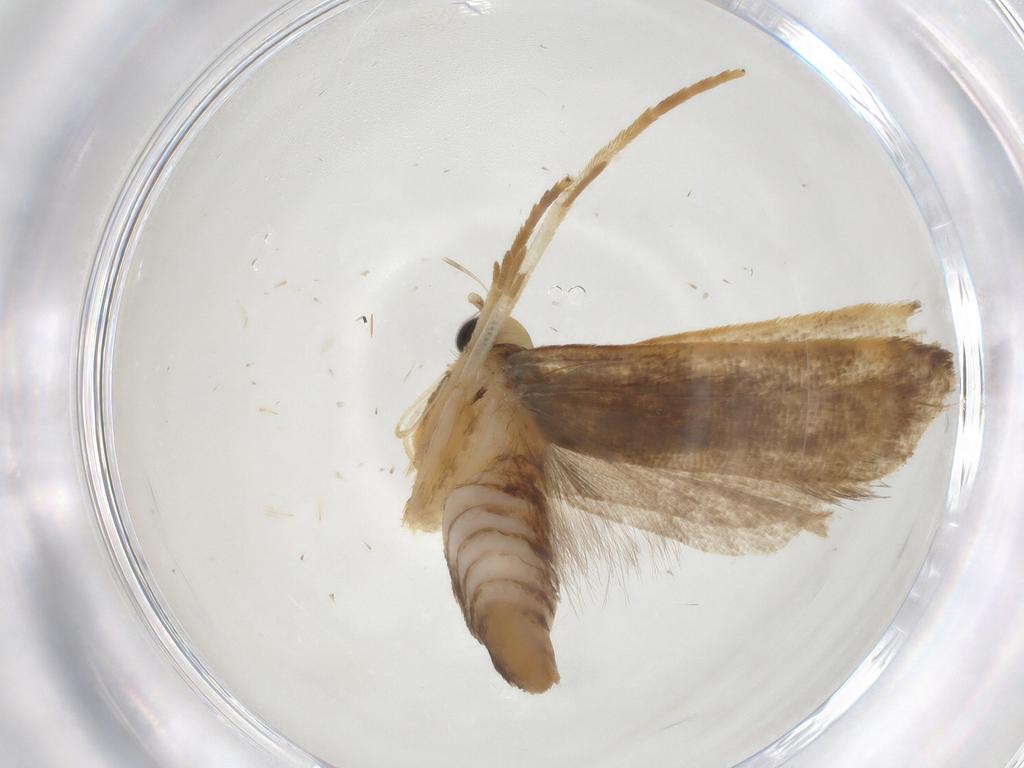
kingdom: Animalia
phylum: Arthropoda
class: Insecta
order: Lepidoptera
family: Gelechiidae
